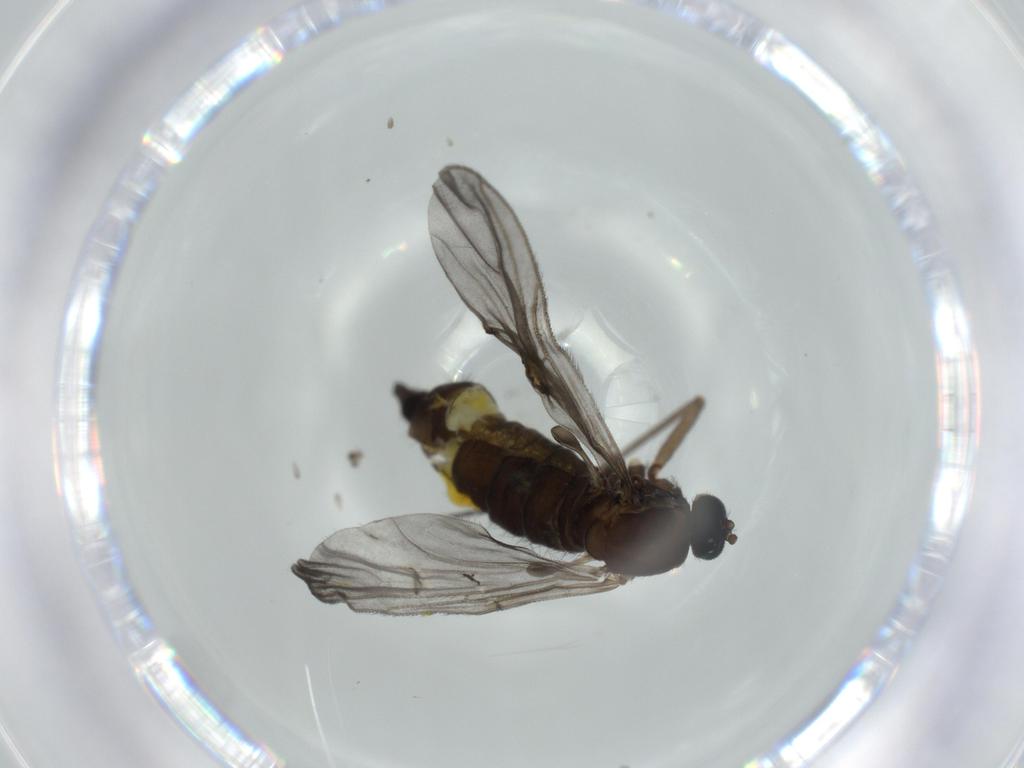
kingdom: Animalia
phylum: Arthropoda
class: Insecta
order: Diptera
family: Sciaridae
